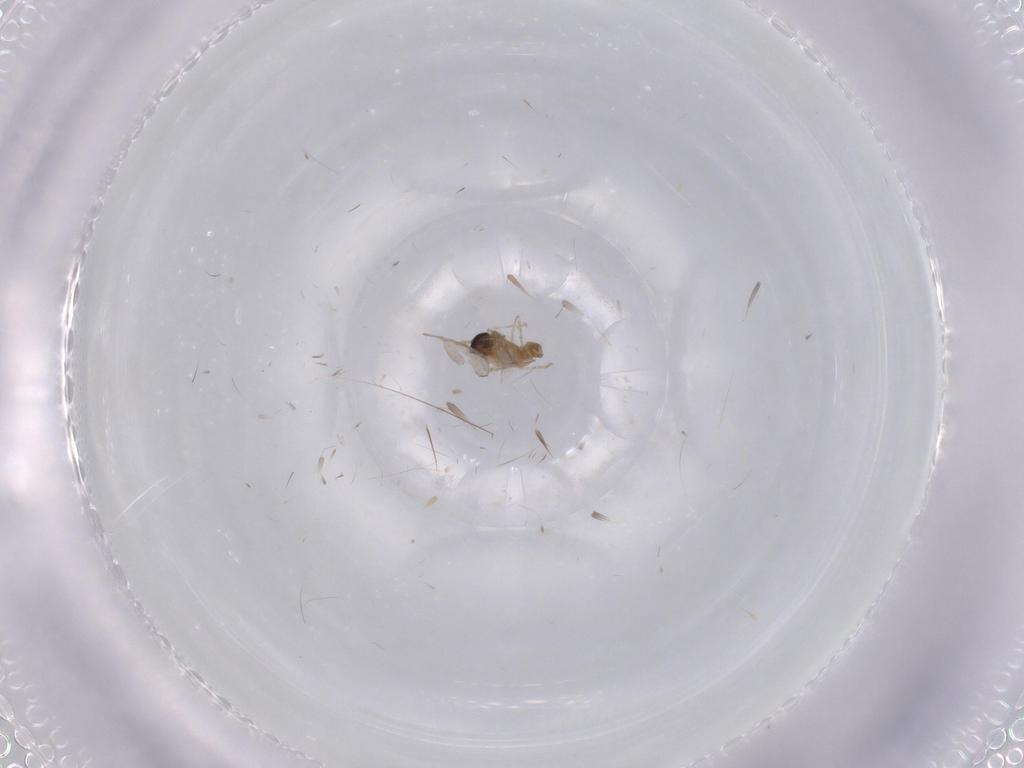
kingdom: Animalia
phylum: Arthropoda
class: Insecta
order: Diptera
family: Cecidomyiidae
